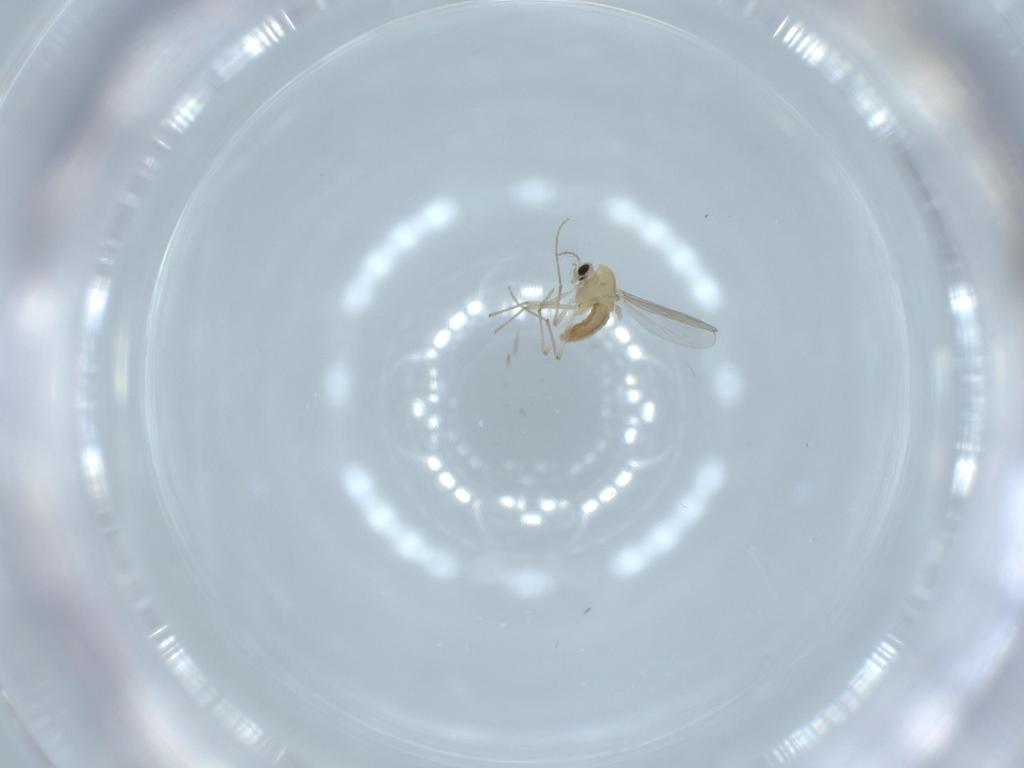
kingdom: Animalia
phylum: Arthropoda
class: Insecta
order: Diptera
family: Chironomidae
